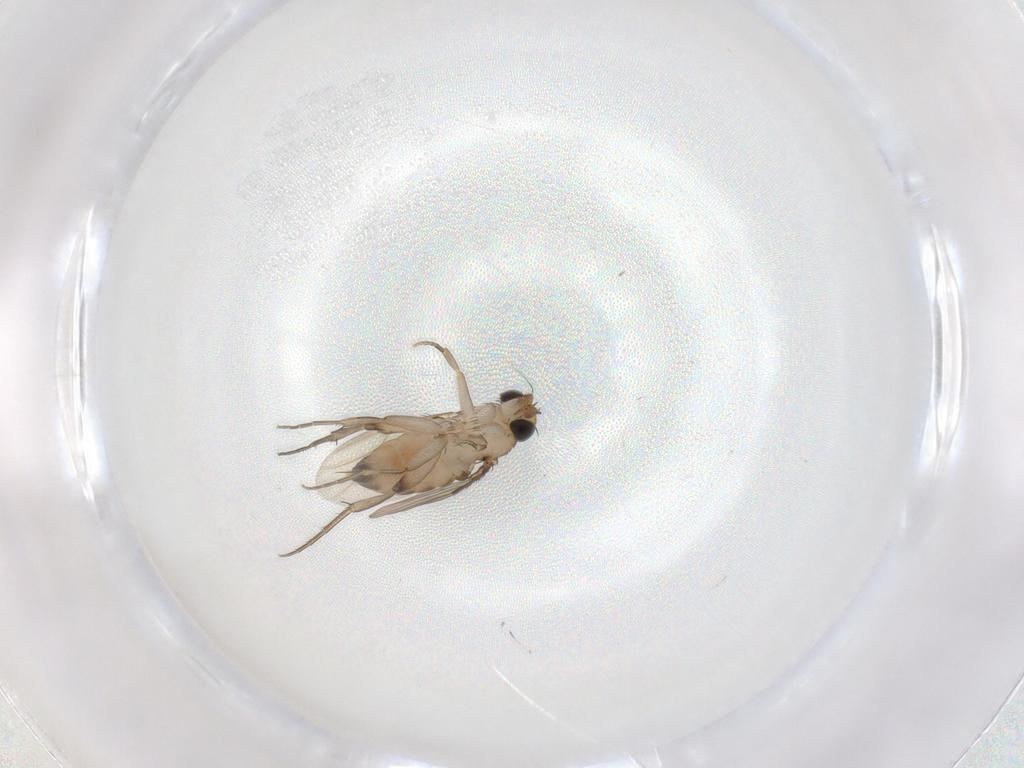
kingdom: Animalia
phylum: Arthropoda
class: Insecta
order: Diptera
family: Phoridae
